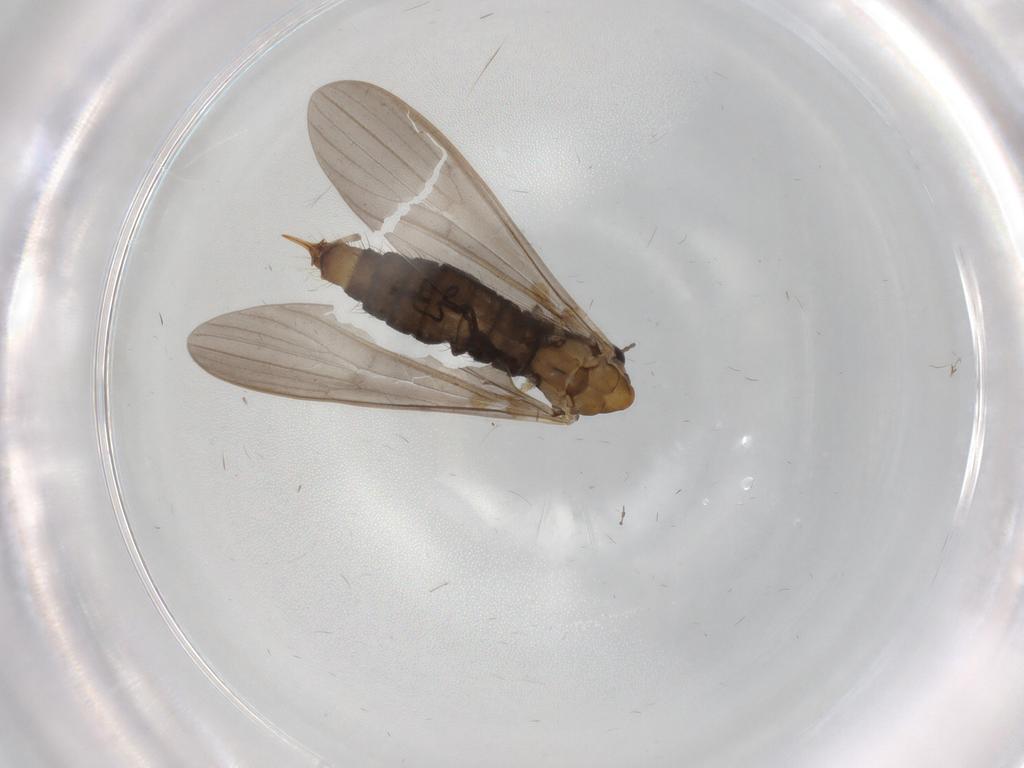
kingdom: Animalia
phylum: Arthropoda
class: Insecta
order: Diptera
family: Limoniidae
